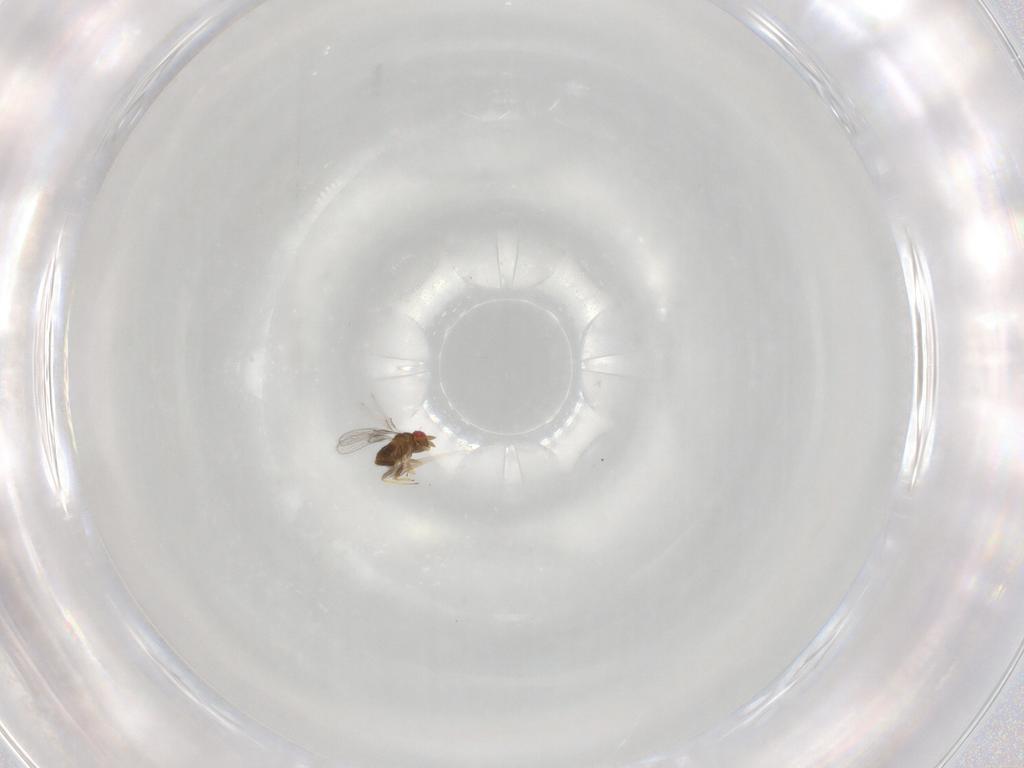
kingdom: Animalia
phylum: Arthropoda
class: Insecta
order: Hymenoptera
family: Trichogrammatidae
